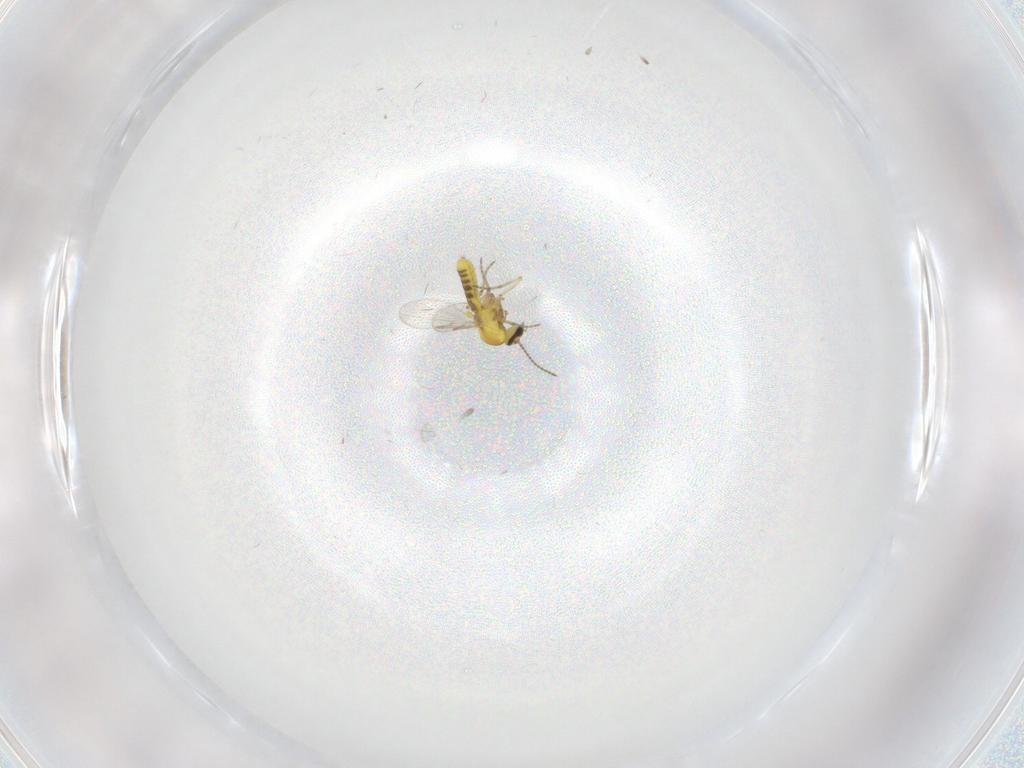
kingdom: Animalia
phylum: Arthropoda
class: Insecta
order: Diptera
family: Ceratopogonidae
